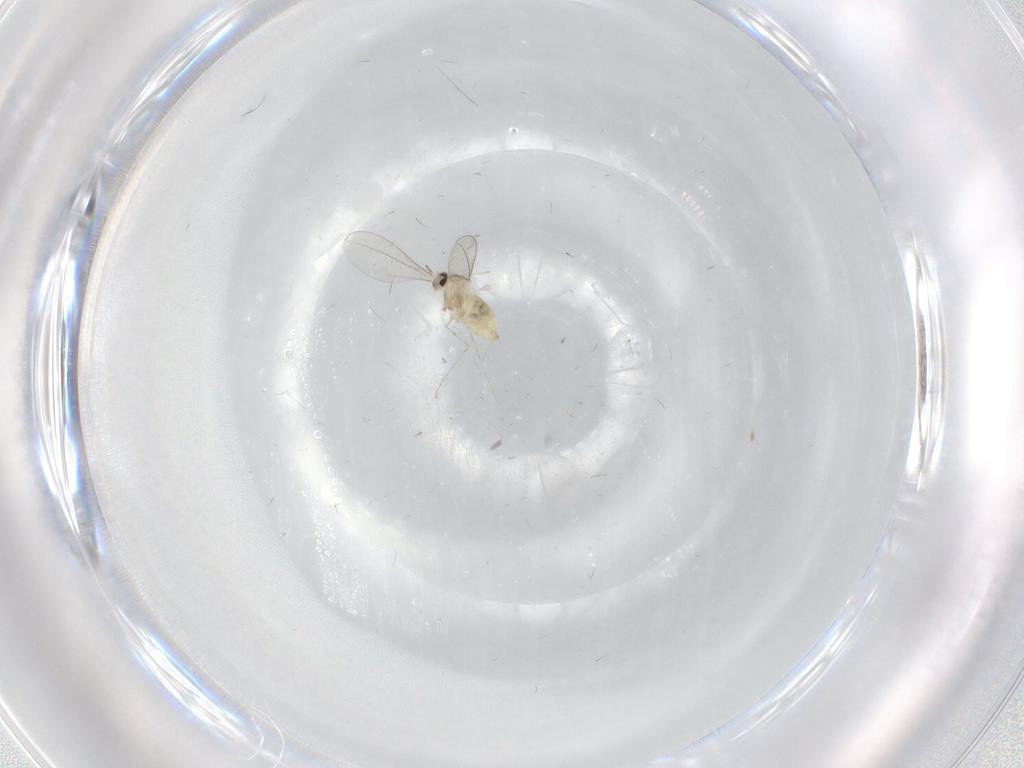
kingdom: Animalia
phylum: Arthropoda
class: Insecta
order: Diptera
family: Cecidomyiidae
